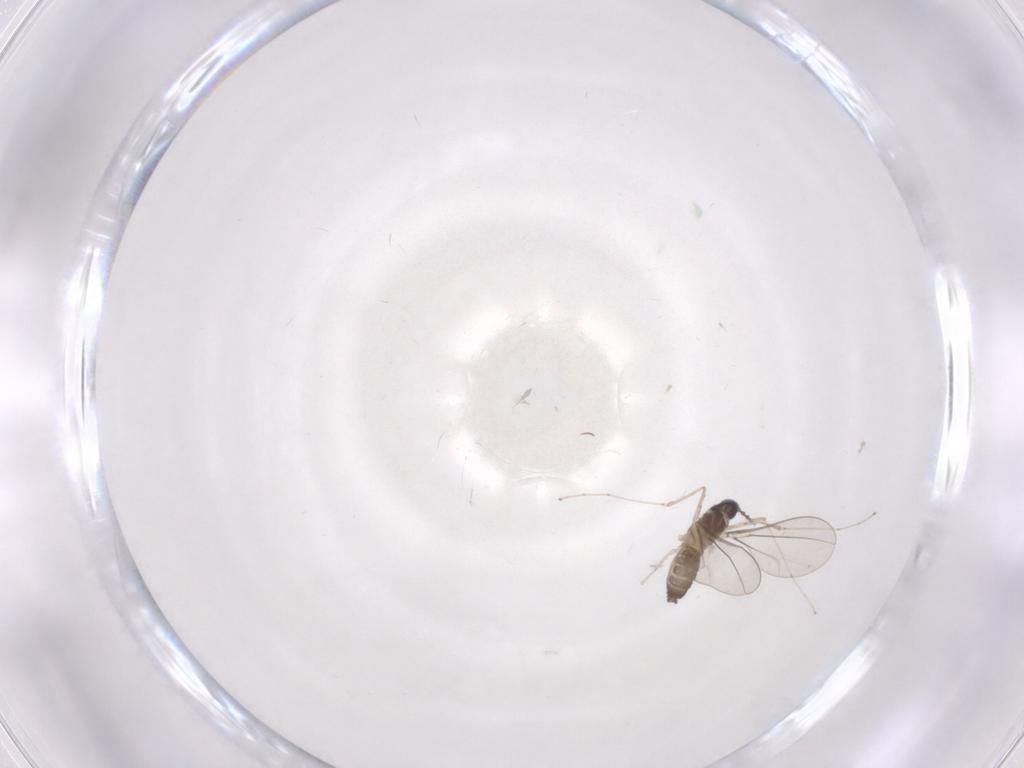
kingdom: Animalia
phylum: Arthropoda
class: Insecta
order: Diptera
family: Cecidomyiidae
